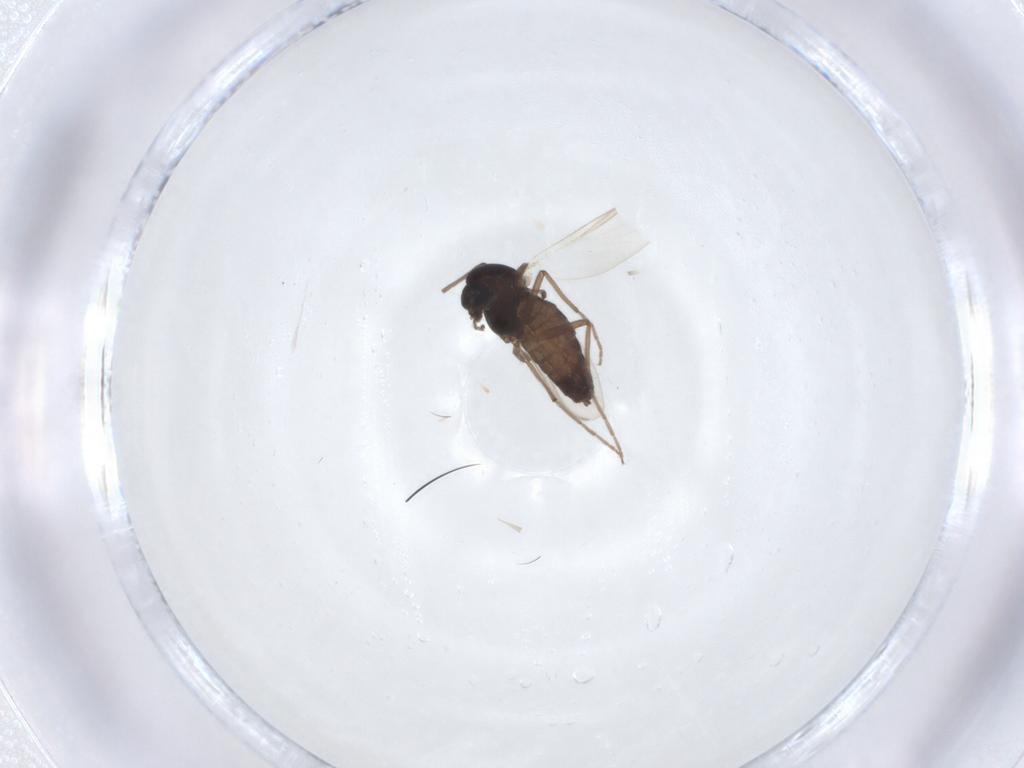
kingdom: Animalia
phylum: Arthropoda
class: Insecta
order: Diptera
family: Chironomidae
